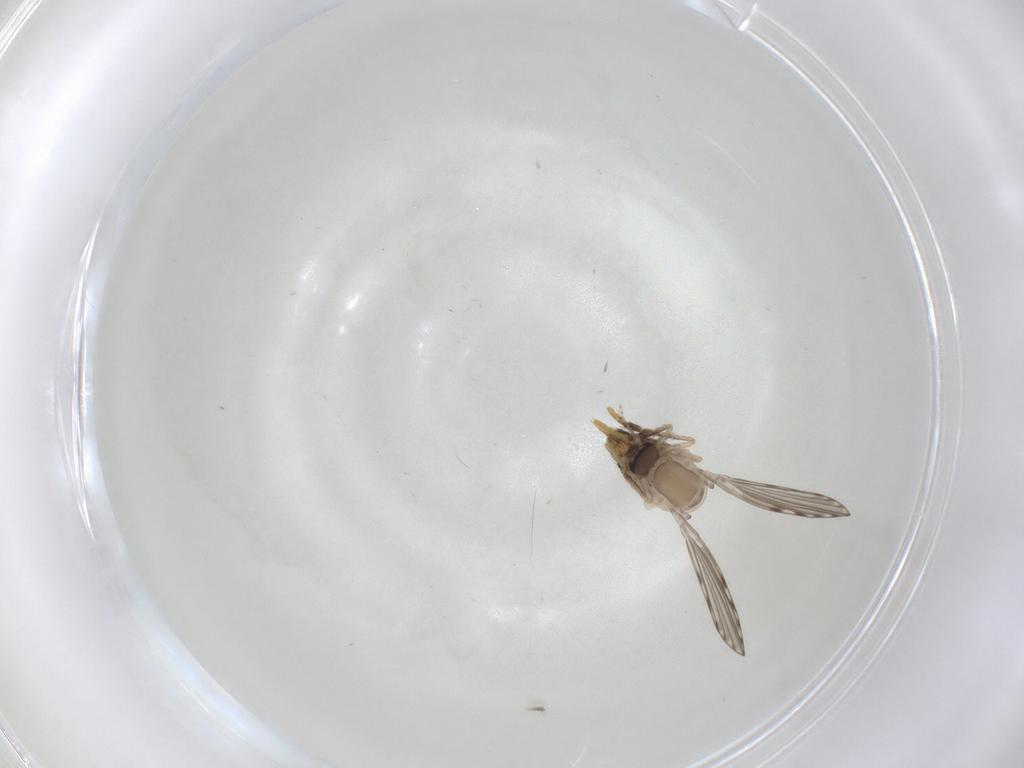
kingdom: Animalia
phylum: Arthropoda
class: Insecta
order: Diptera
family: Psychodidae
